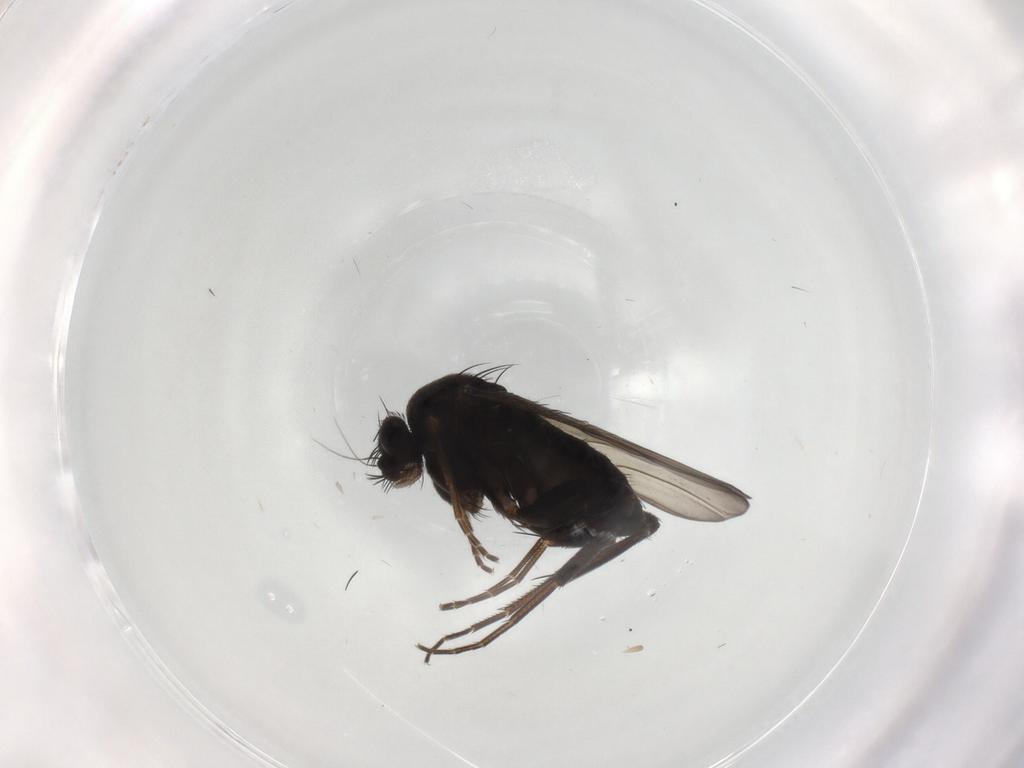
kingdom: Animalia
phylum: Arthropoda
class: Insecta
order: Diptera
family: Phoridae
